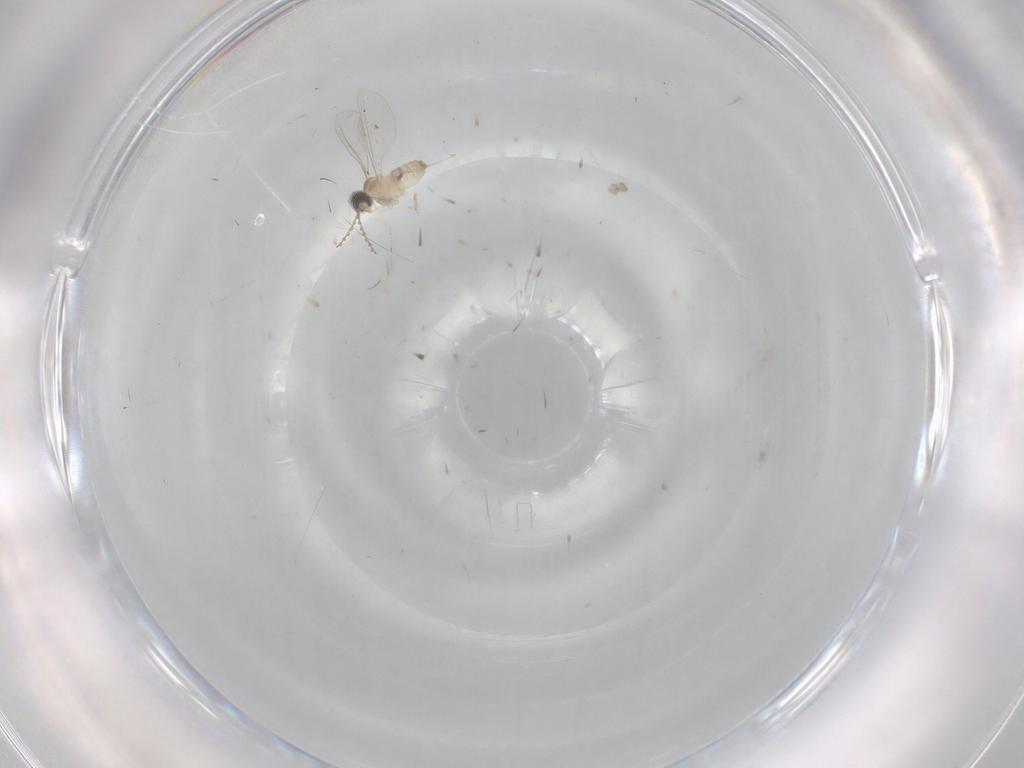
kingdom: Animalia
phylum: Arthropoda
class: Insecta
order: Diptera
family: Cecidomyiidae
